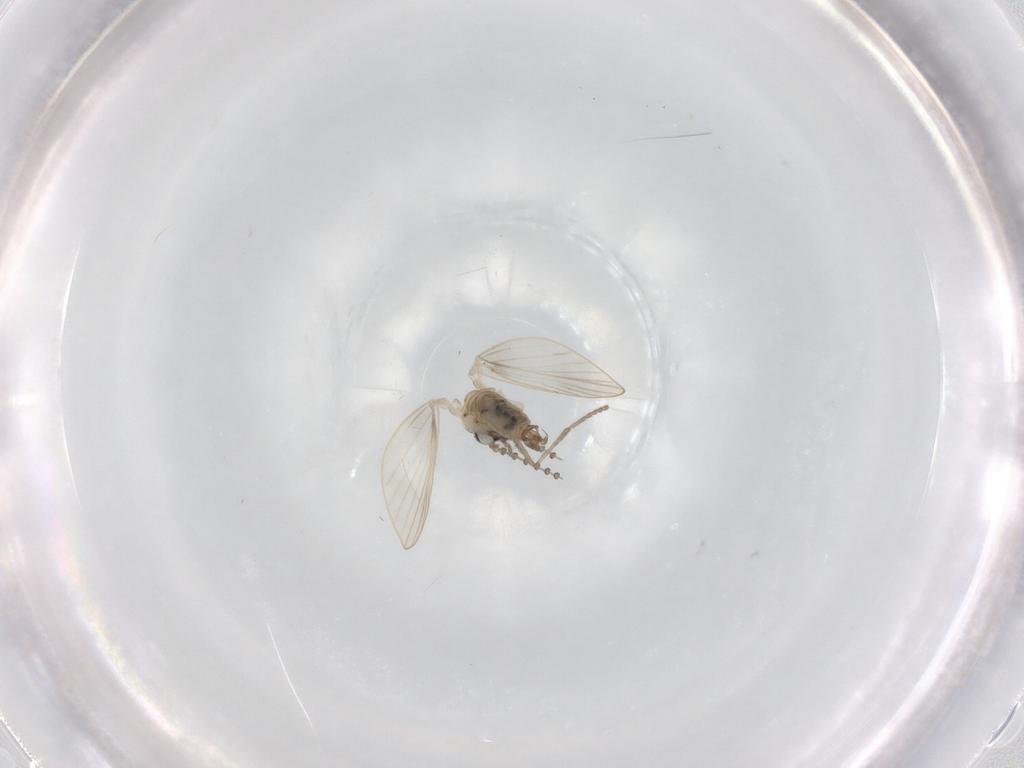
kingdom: Animalia
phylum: Arthropoda
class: Insecta
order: Diptera
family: Psychodidae
